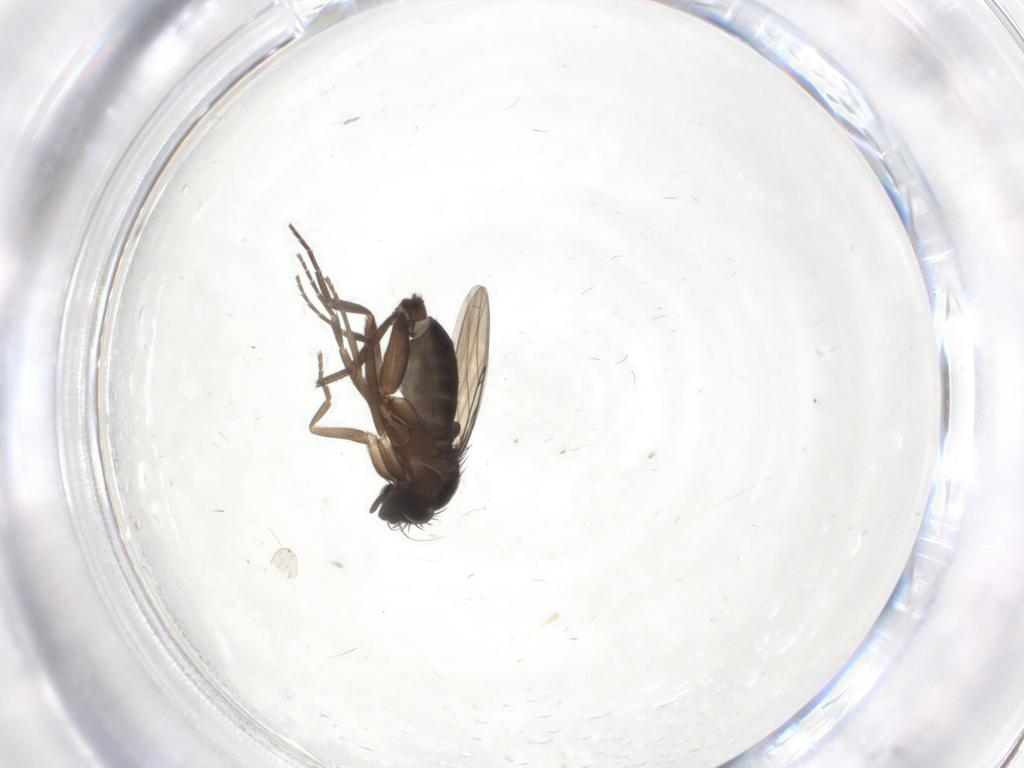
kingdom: Animalia
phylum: Arthropoda
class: Insecta
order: Diptera
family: Phoridae
